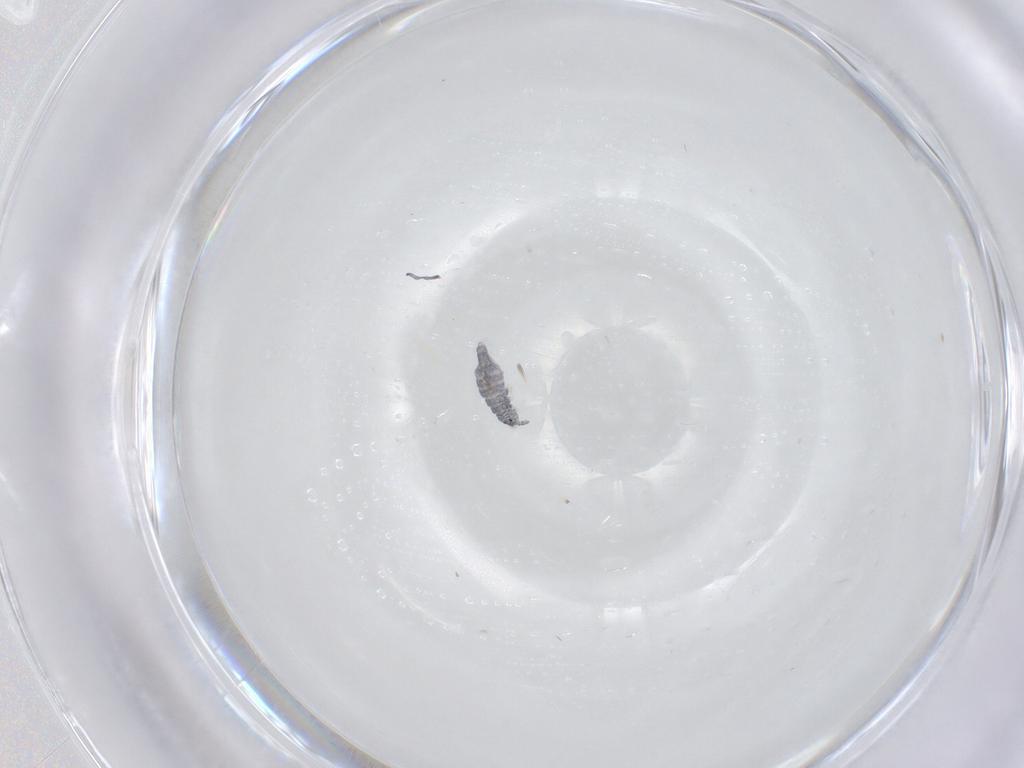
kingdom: Animalia
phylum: Arthropoda
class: Collembola
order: Poduromorpha
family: Hypogastruridae
